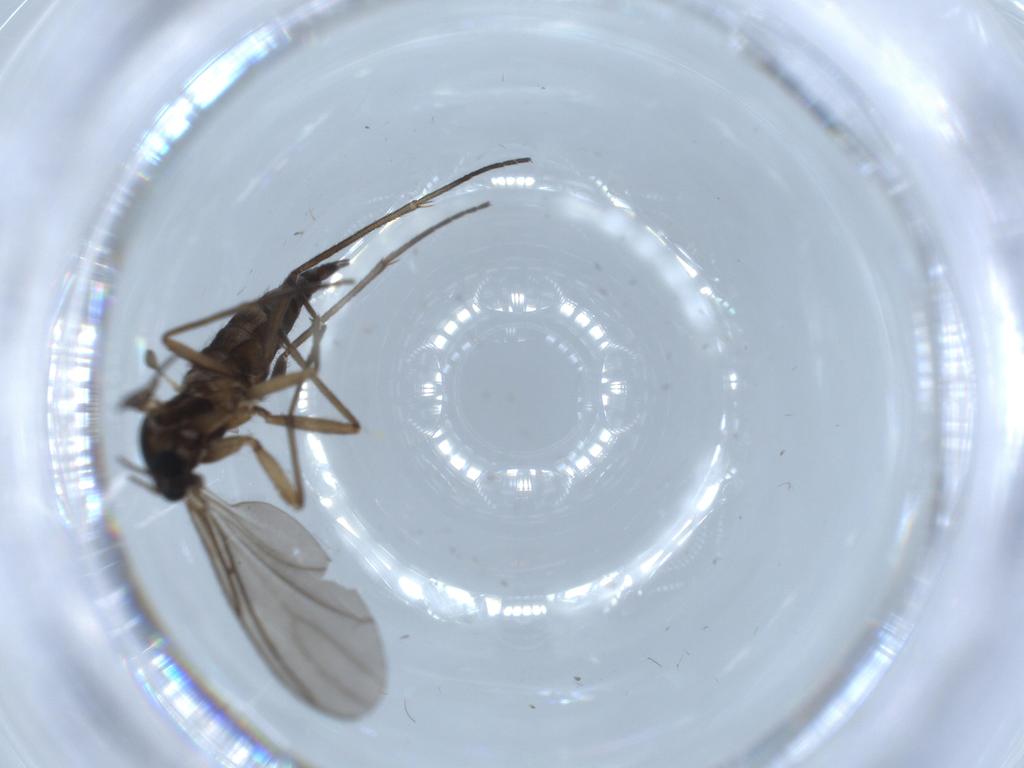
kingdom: Animalia
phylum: Arthropoda
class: Insecta
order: Diptera
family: Sciaridae
